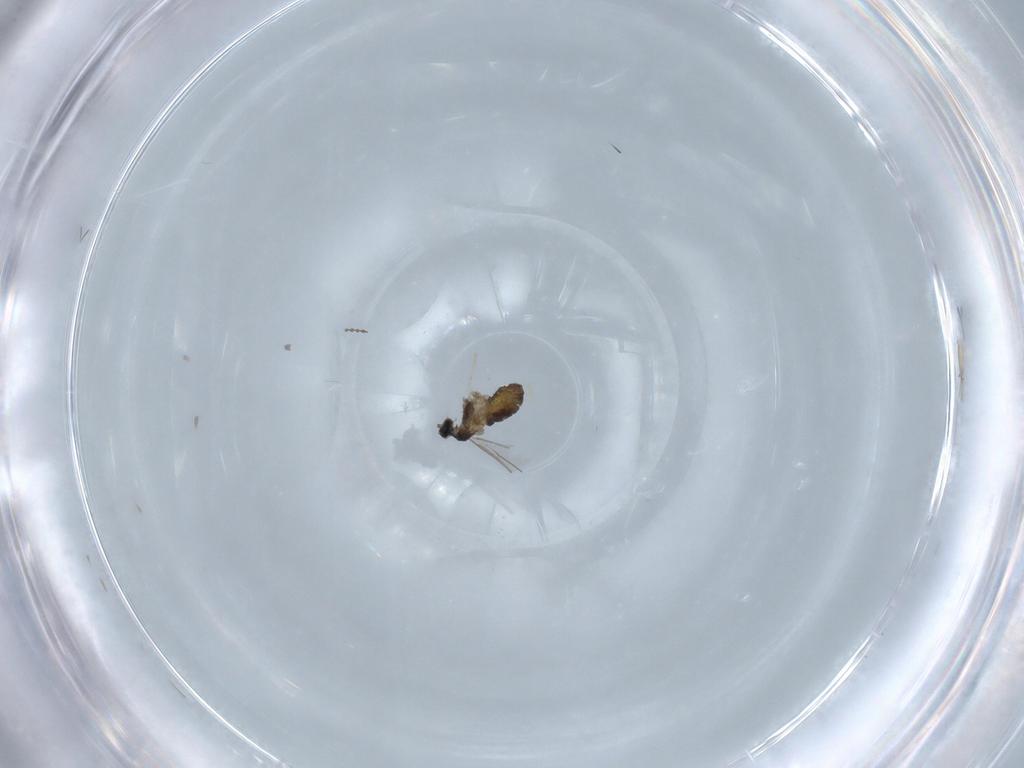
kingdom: Animalia
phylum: Arthropoda
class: Insecta
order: Diptera
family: Cecidomyiidae
